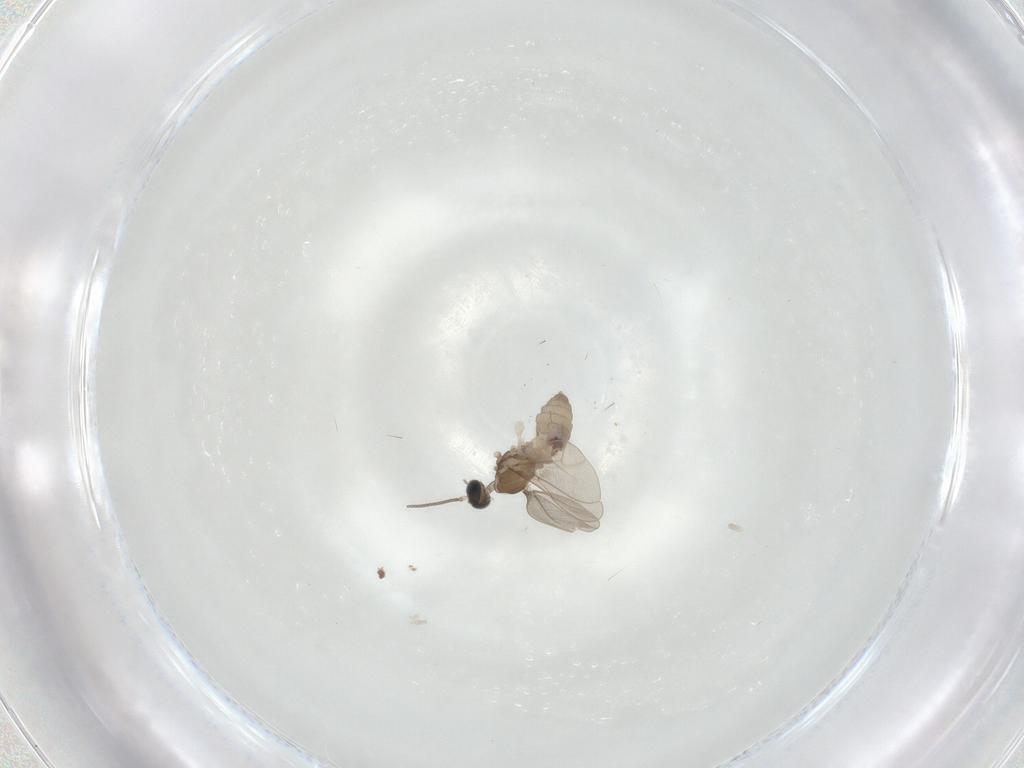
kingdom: Animalia
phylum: Arthropoda
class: Insecta
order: Diptera
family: Cecidomyiidae
